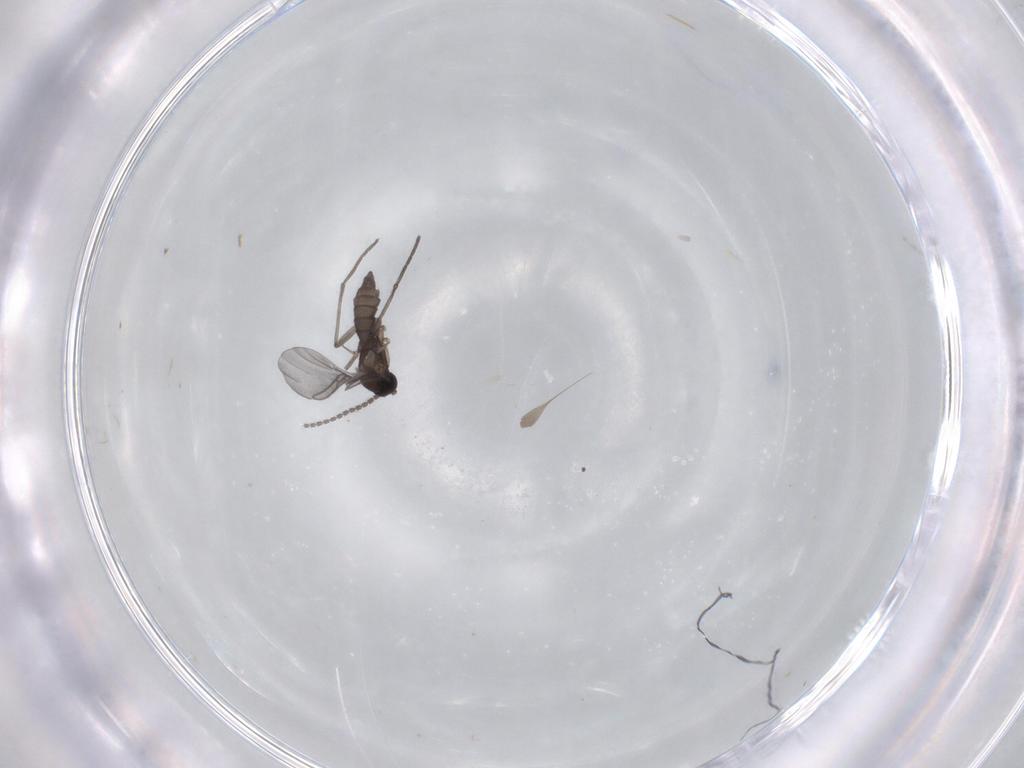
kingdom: Animalia
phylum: Arthropoda
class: Insecta
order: Diptera
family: Sciaridae
